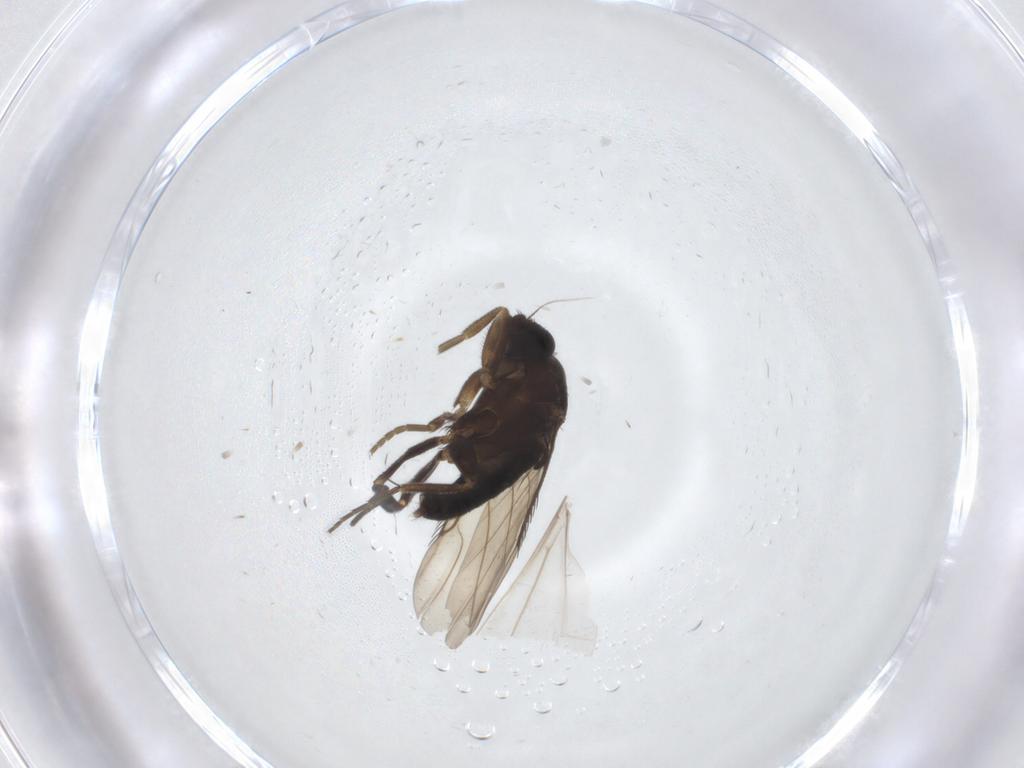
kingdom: Animalia
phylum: Arthropoda
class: Insecta
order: Diptera
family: Phoridae
